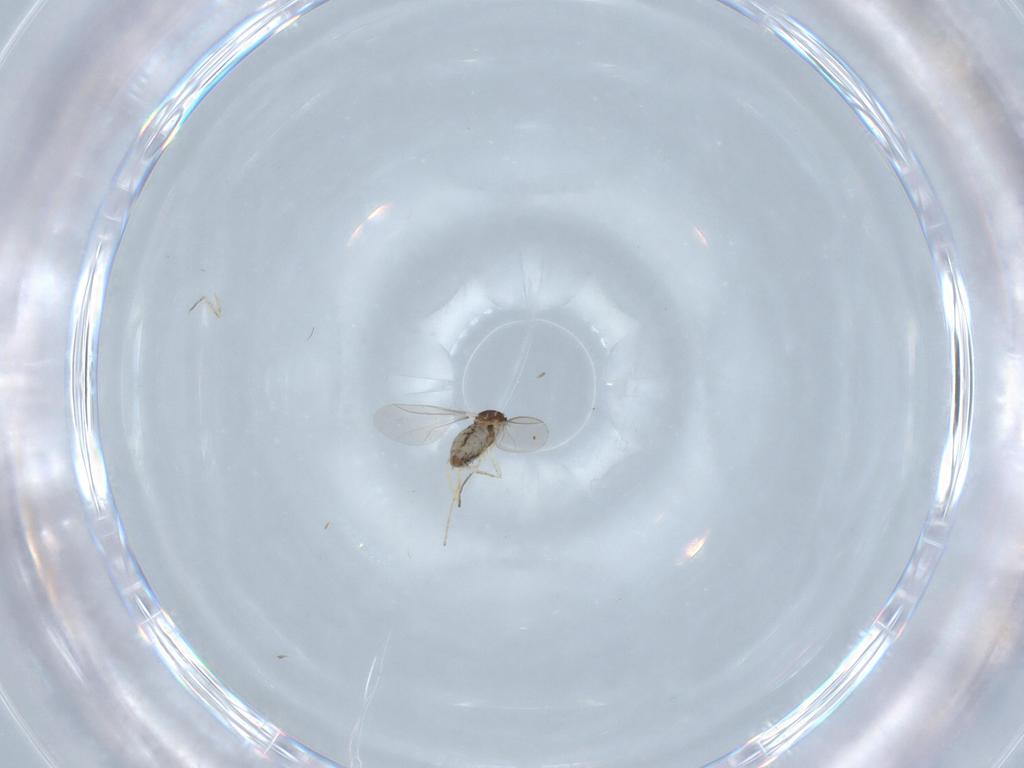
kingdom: Animalia
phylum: Arthropoda
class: Insecta
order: Diptera
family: Cecidomyiidae
